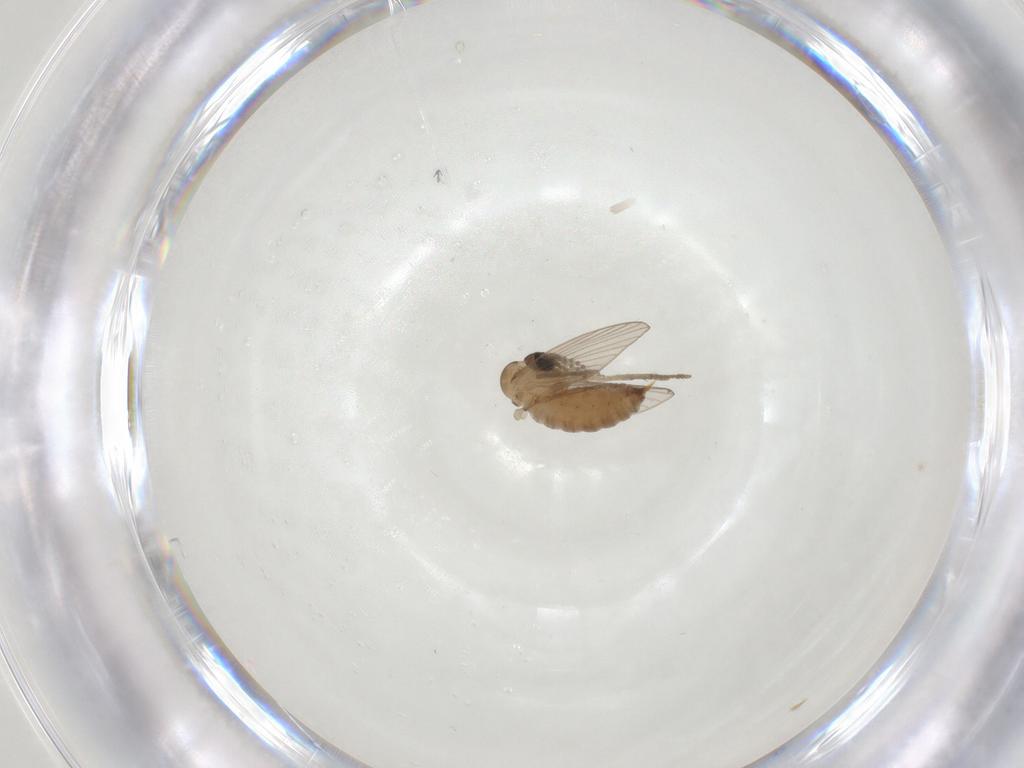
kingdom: Animalia
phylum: Arthropoda
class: Insecta
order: Diptera
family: Psychodidae
